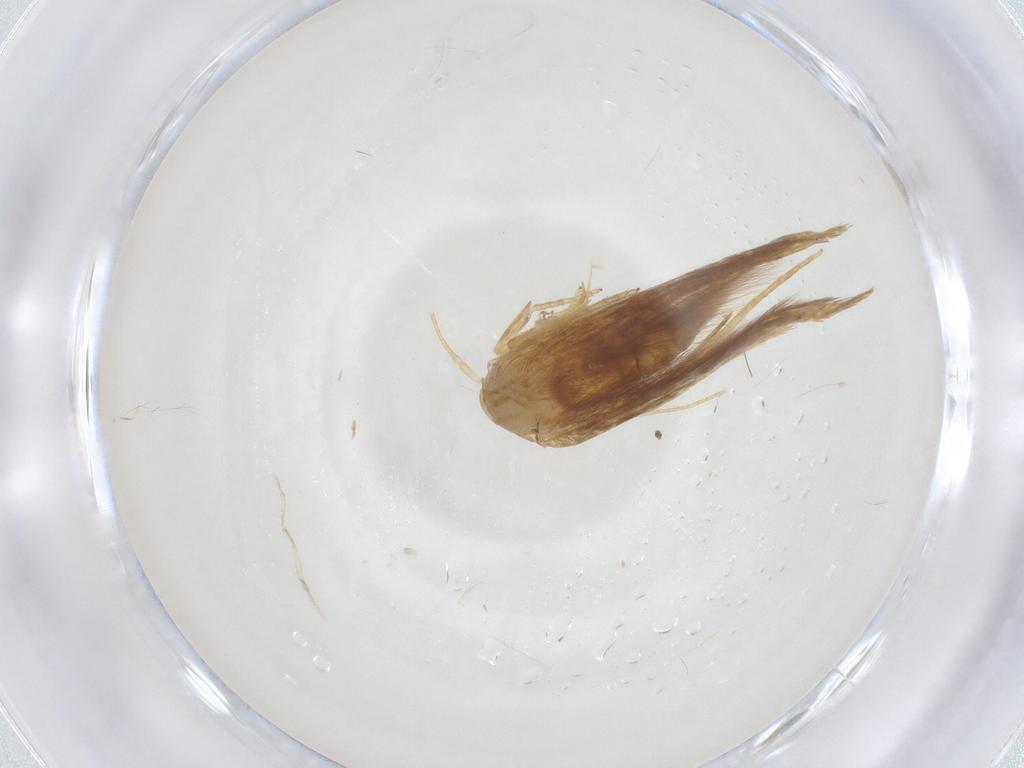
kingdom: Animalia
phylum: Arthropoda
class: Insecta
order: Lepidoptera
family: Cosmopterigidae
